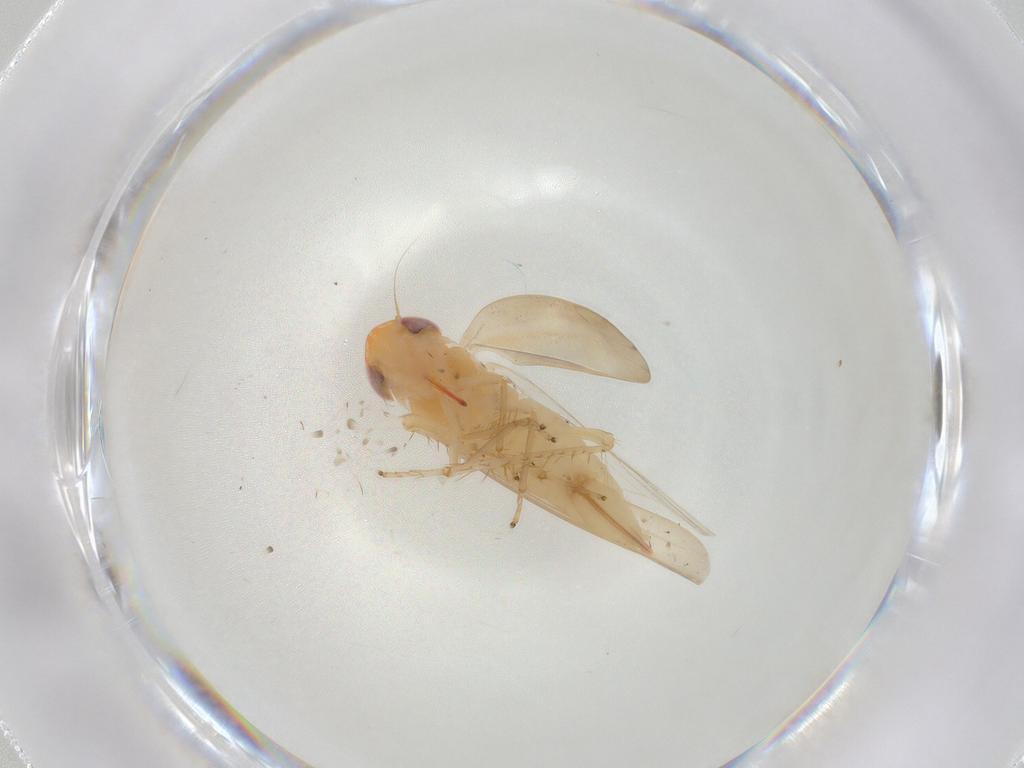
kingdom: Animalia
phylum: Arthropoda
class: Insecta
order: Hemiptera
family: Cicadellidae
